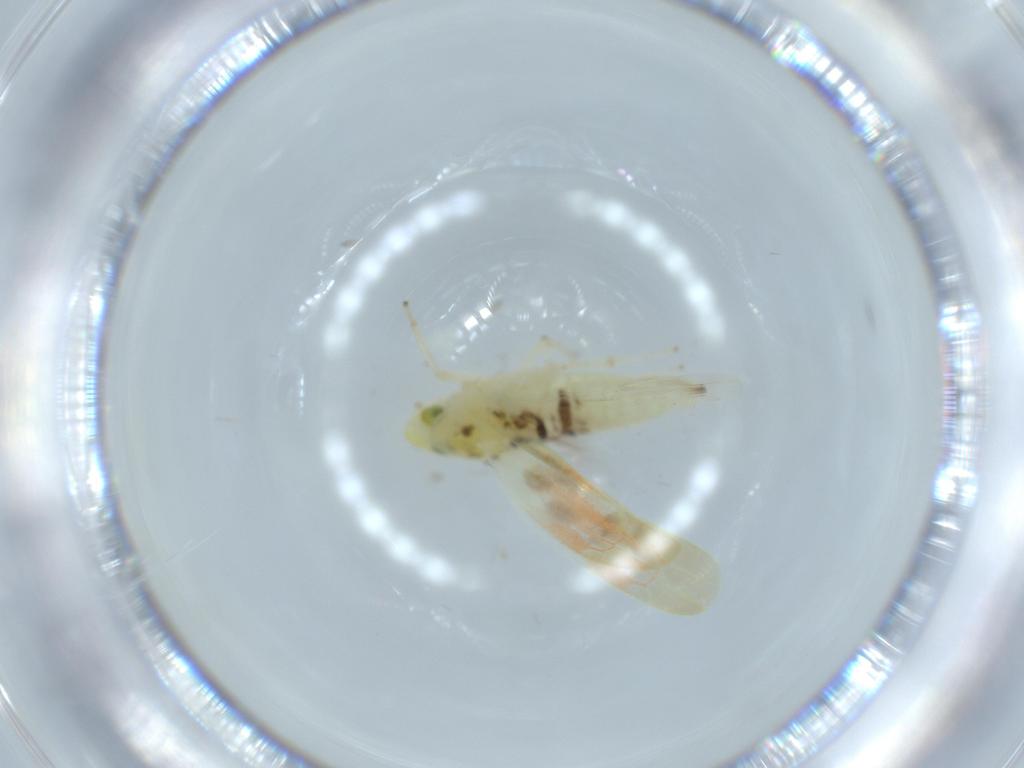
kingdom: Animalia
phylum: Arthropoda
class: Insecta
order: Hemiptera
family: Cicadellidae
